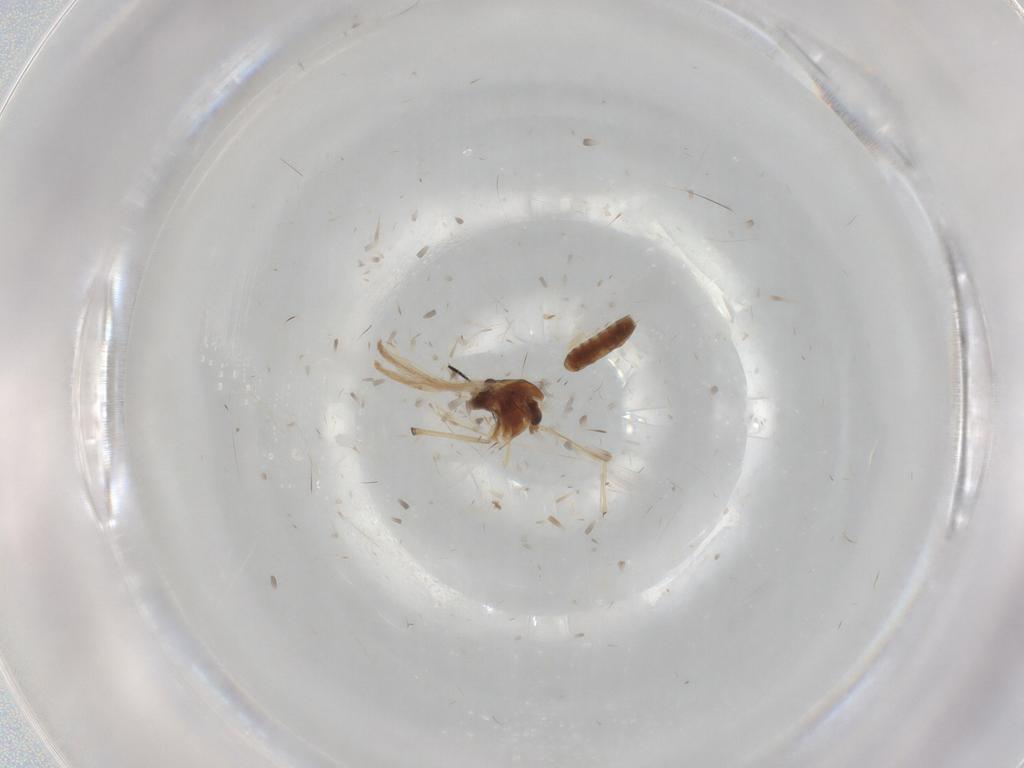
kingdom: Animalia
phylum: Arthropoda
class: Insecta
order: Diptera
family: Chironomidae
